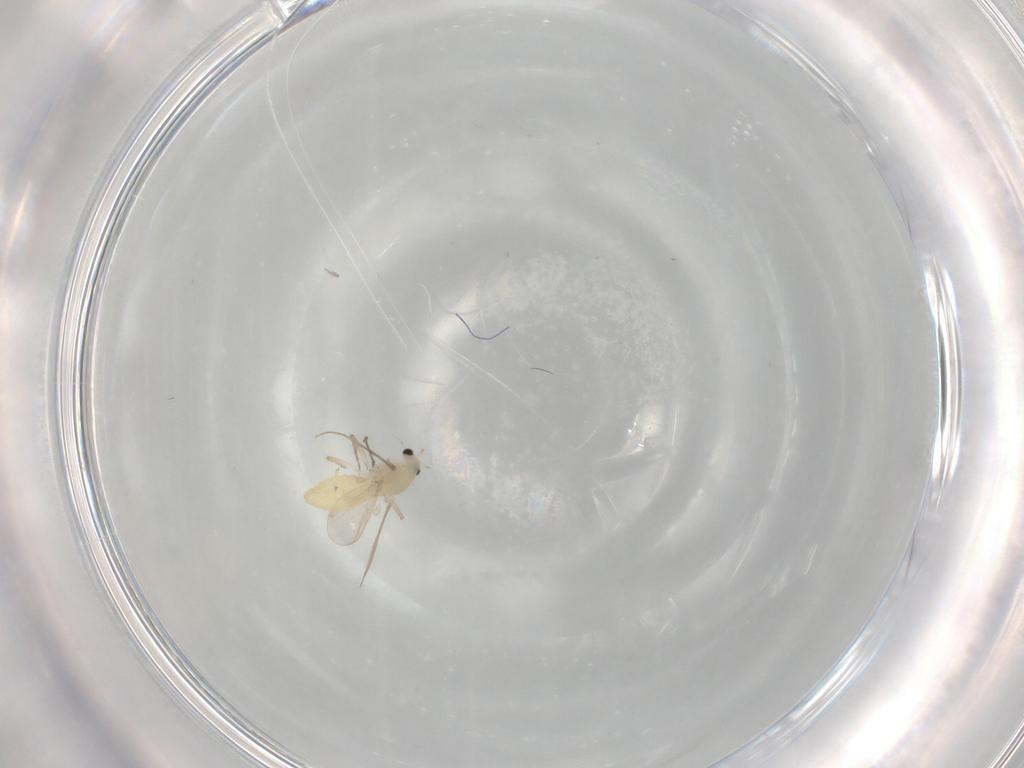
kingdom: Animalia
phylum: Arthropoda
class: Insecta
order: Diptera
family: Chironomidae
